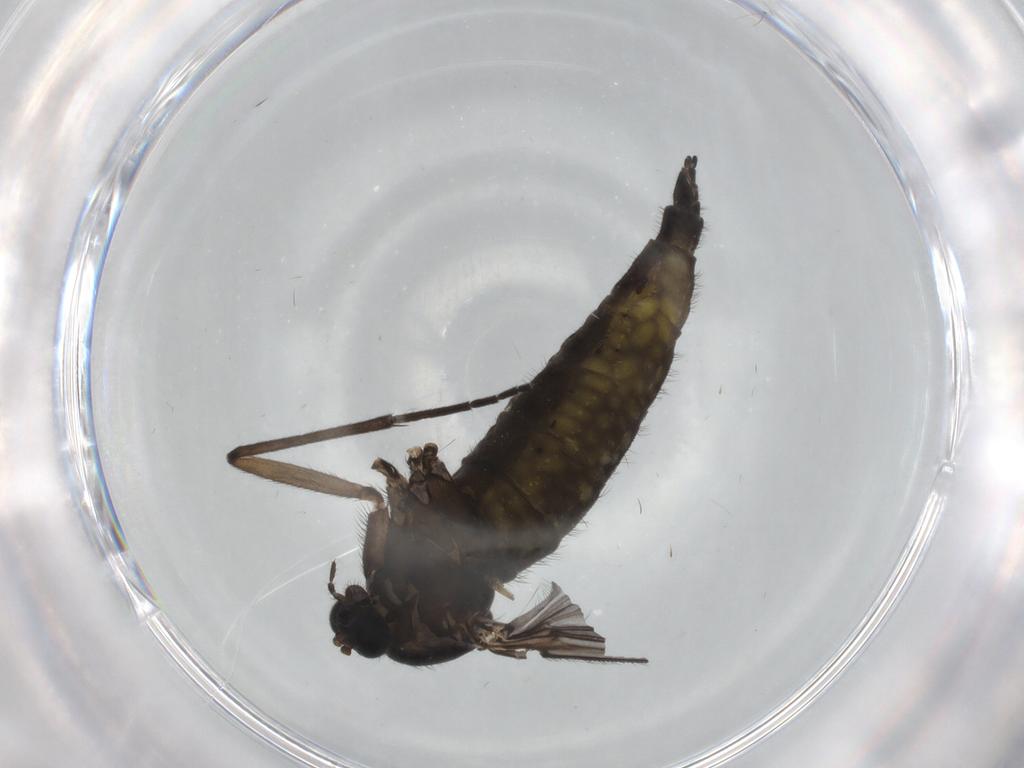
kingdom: Animalia
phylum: Arthropoda
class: Insecta
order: Diptera
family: Sciaridae
